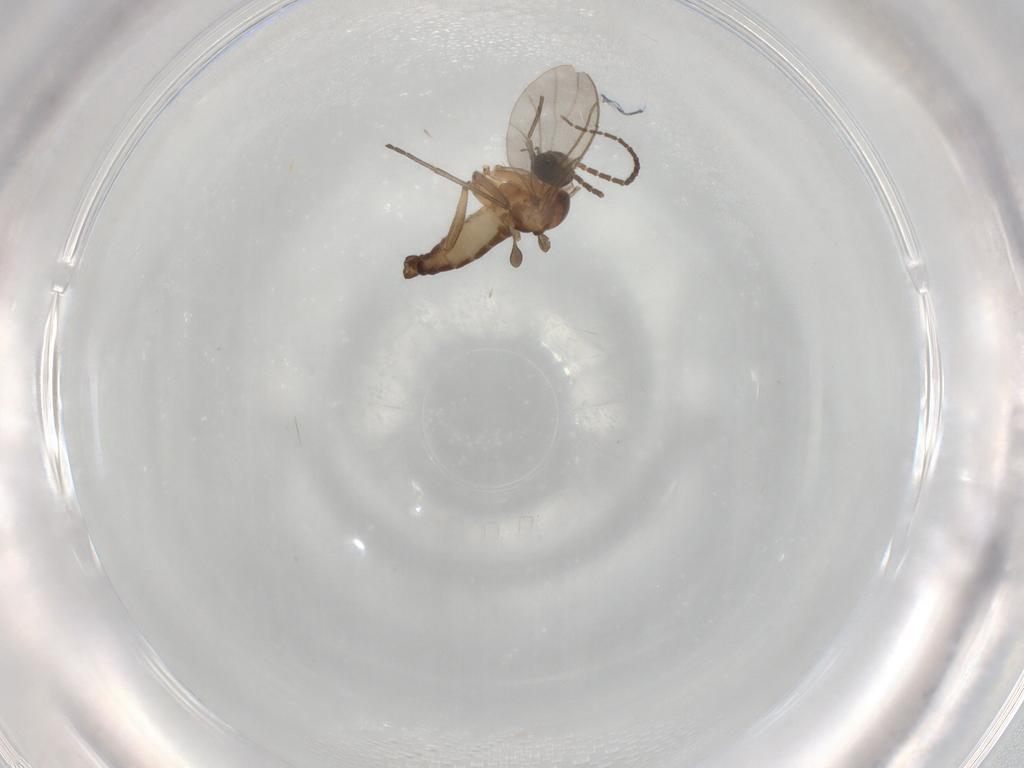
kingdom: Animalia
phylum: Arthropoda
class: Insecta
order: Diptera
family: Sciaridae
